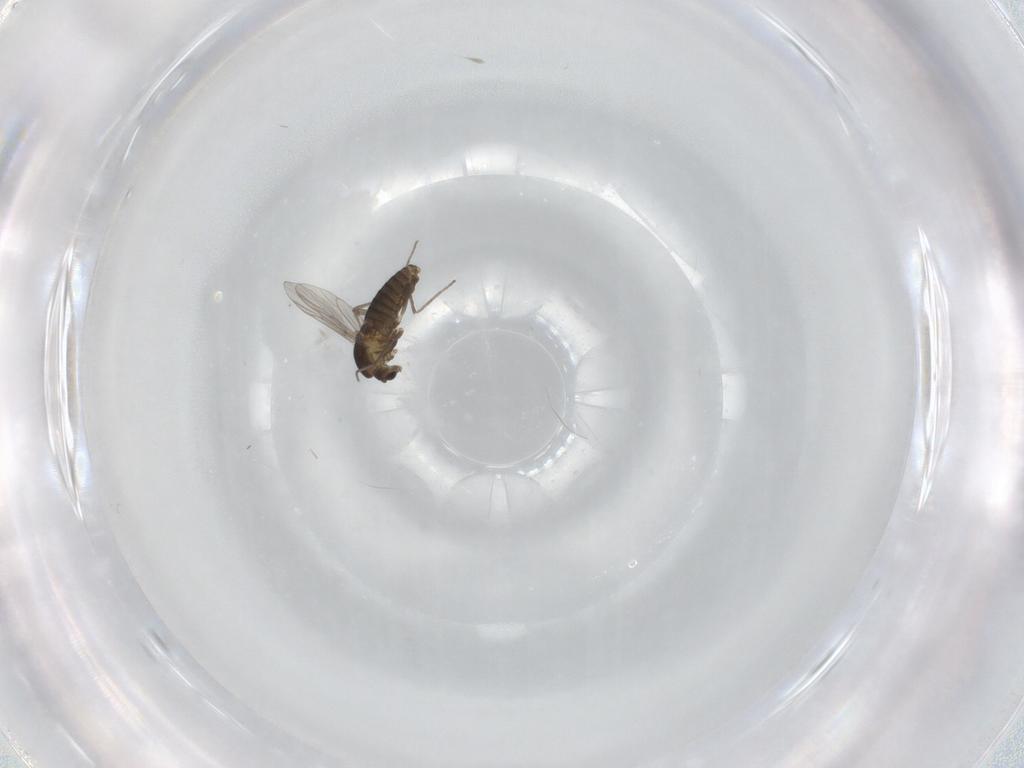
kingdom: Animalia
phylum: Arthropoda
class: Insecta
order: Diptera
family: Chironomidae
